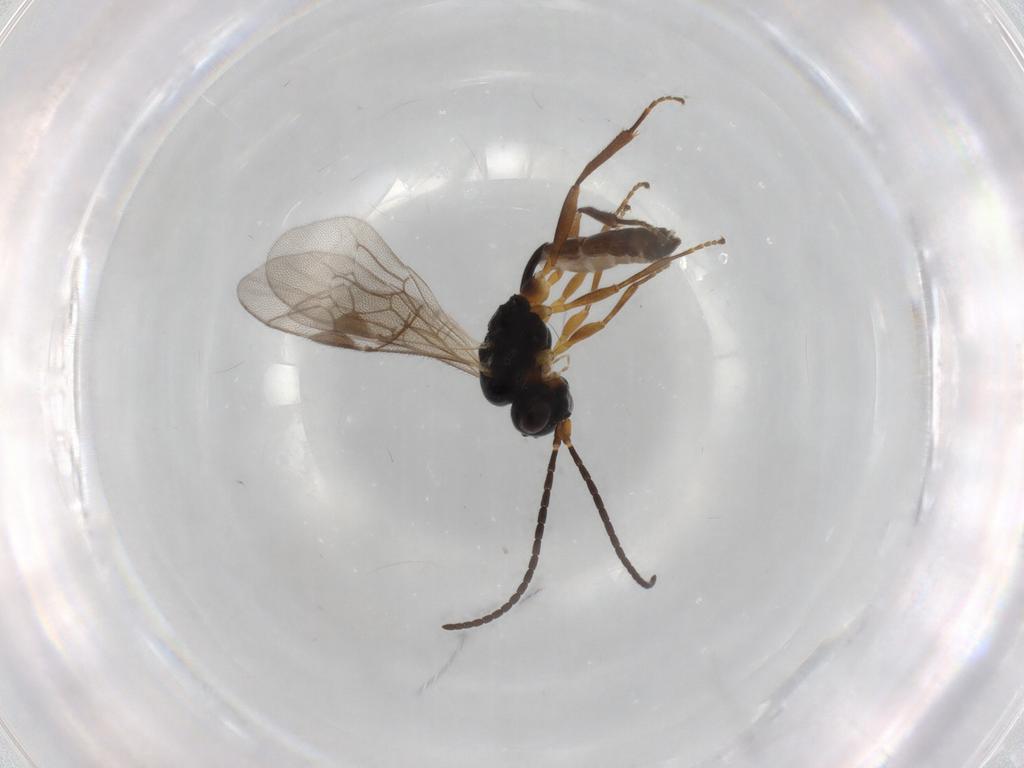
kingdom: Animalia
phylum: Arthropoda
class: Insecta
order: Hymenoptera
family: Ichneumonidae
